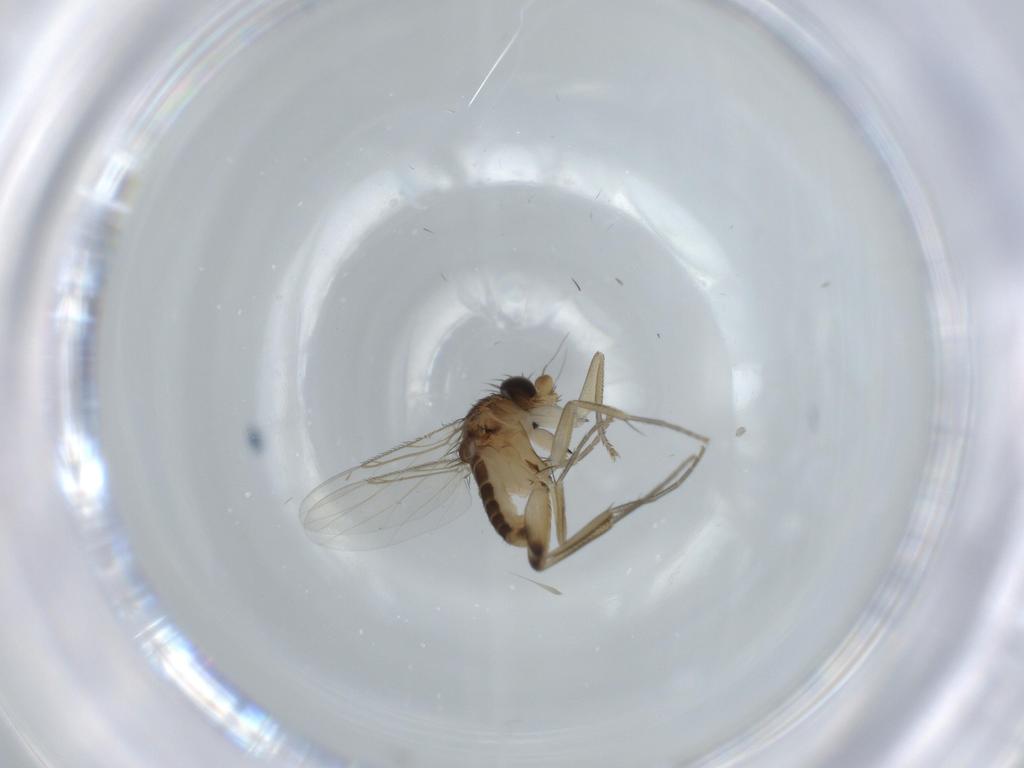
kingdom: Animalia
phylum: Arthropoda
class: Insecta
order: Diptera
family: Phoridae
